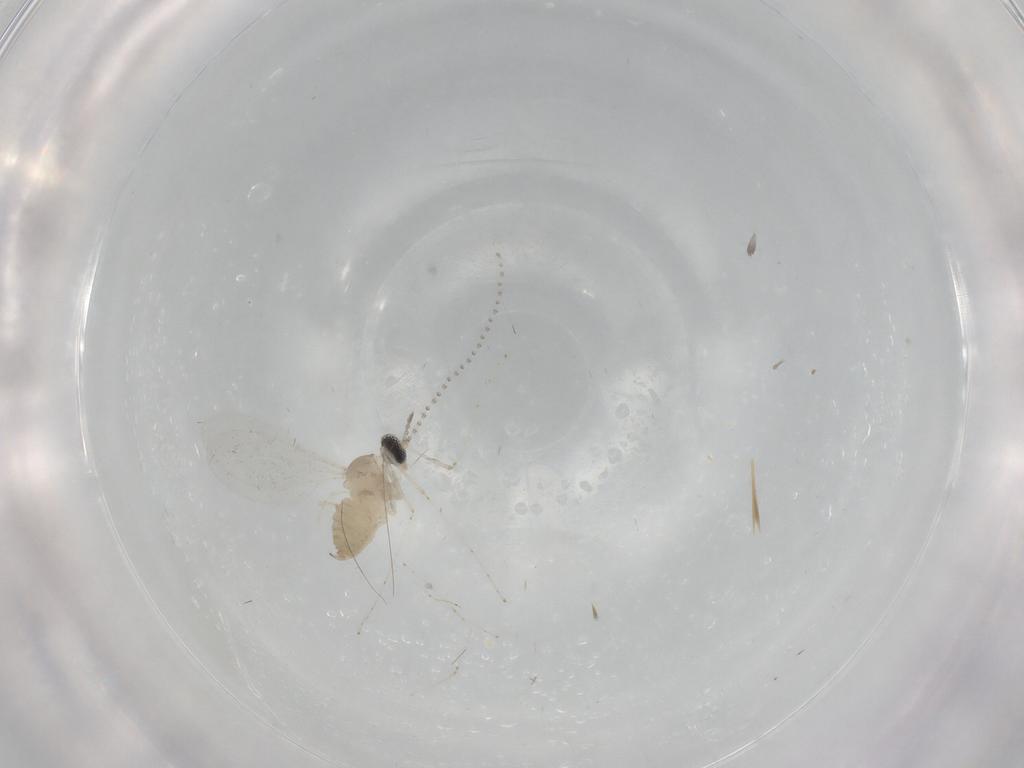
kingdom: Animalia
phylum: Arthropoda
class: Insecta
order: Diptera
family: Cecidomyiidae
